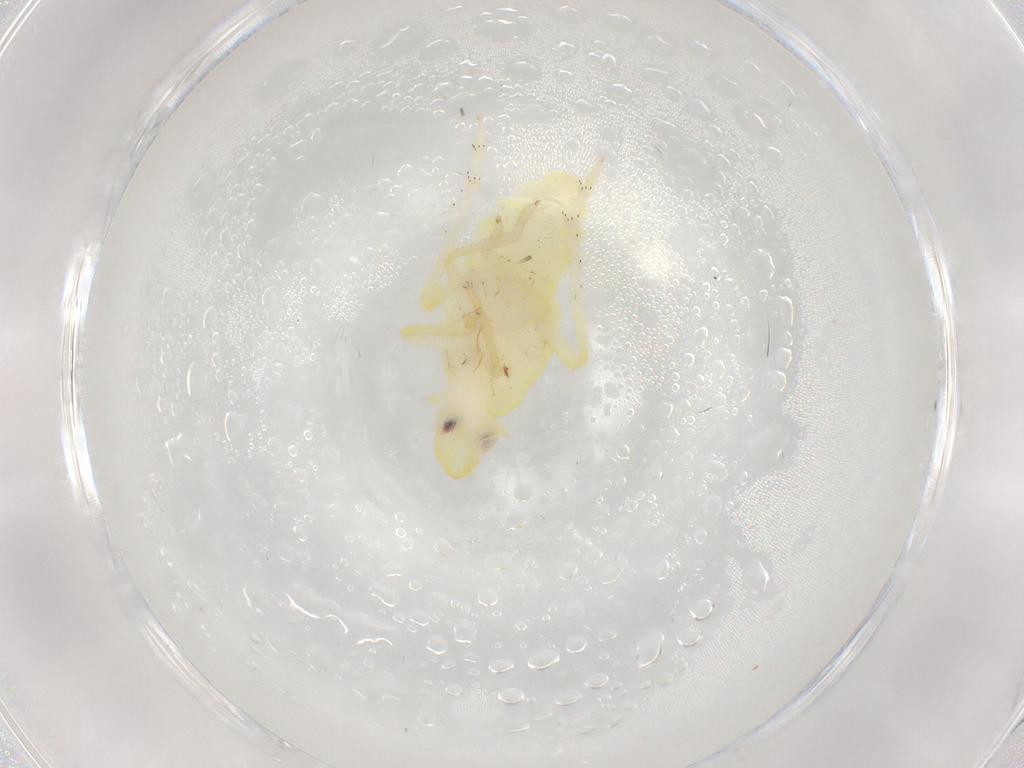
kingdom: Animalia
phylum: Arthropoda
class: Insecta
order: Hemiptera
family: Tropiduchidae
